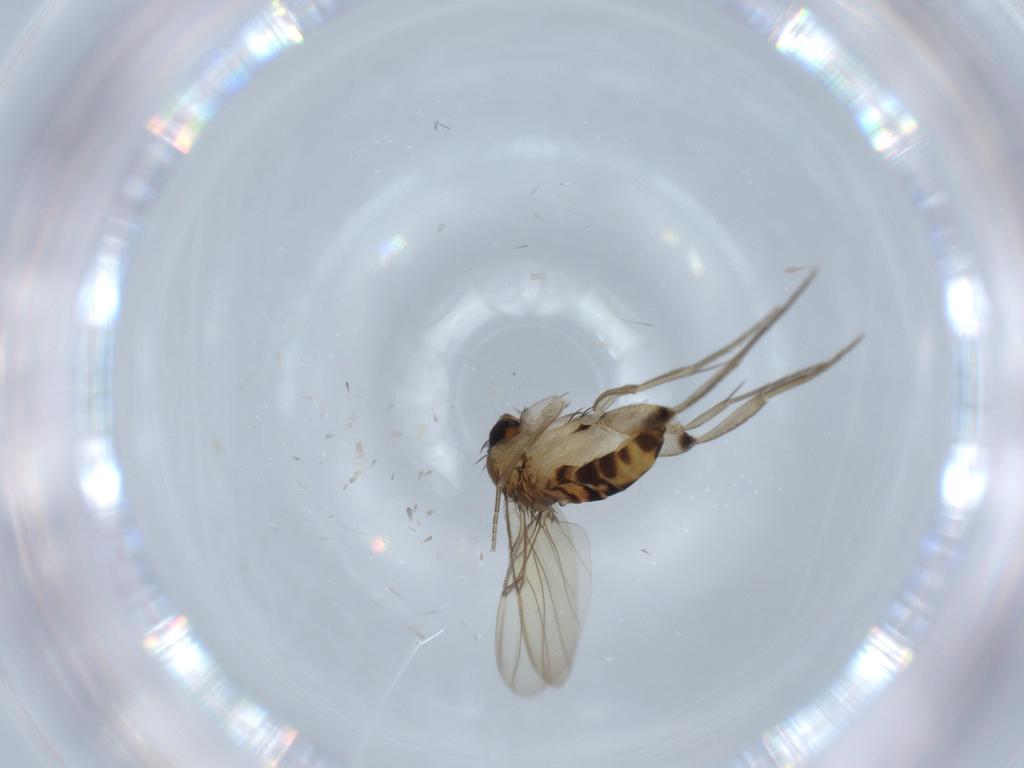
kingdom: Animalia
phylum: Arthropoda
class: Insecta
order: Diptera
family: Phoridae
